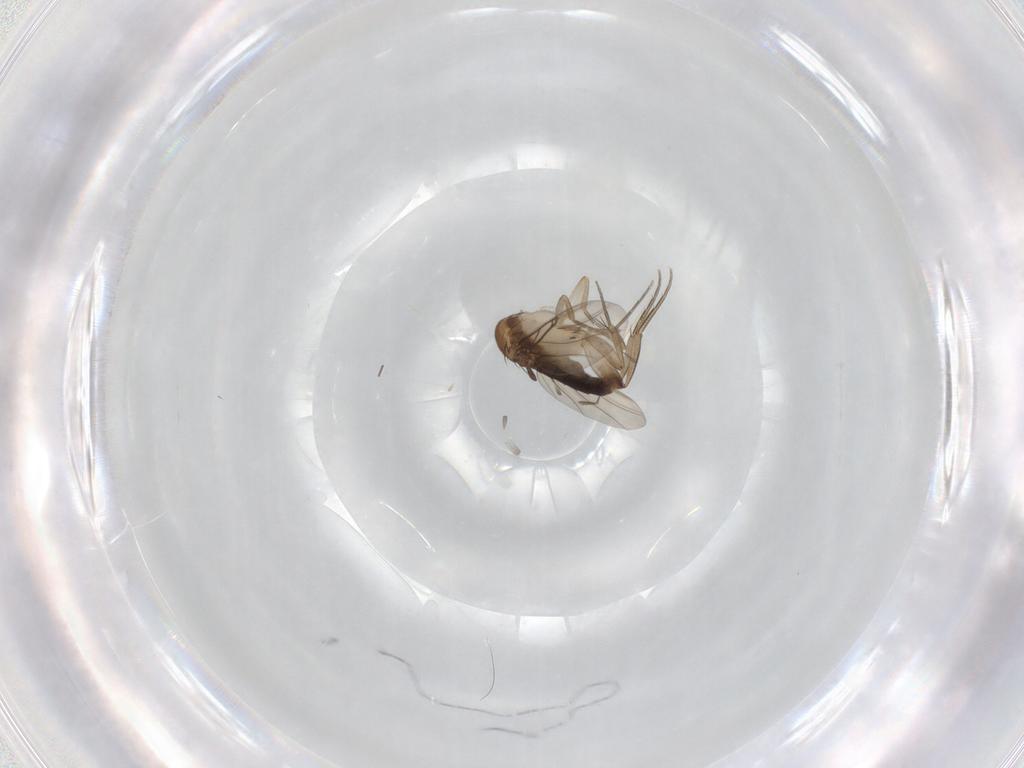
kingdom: Animalia
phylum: Arthropoda
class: Insecta
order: Diptera
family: Phoridae
